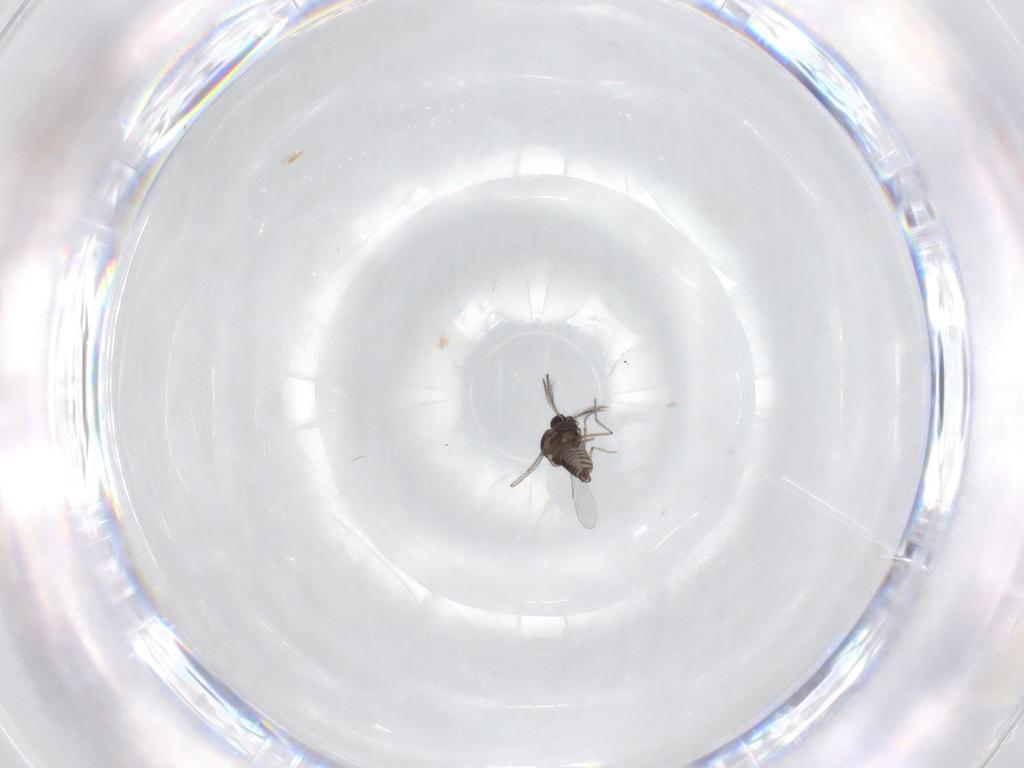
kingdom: Animalia
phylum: Arthropoda
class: Insecta
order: Diptera
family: Ceratopogonidae
